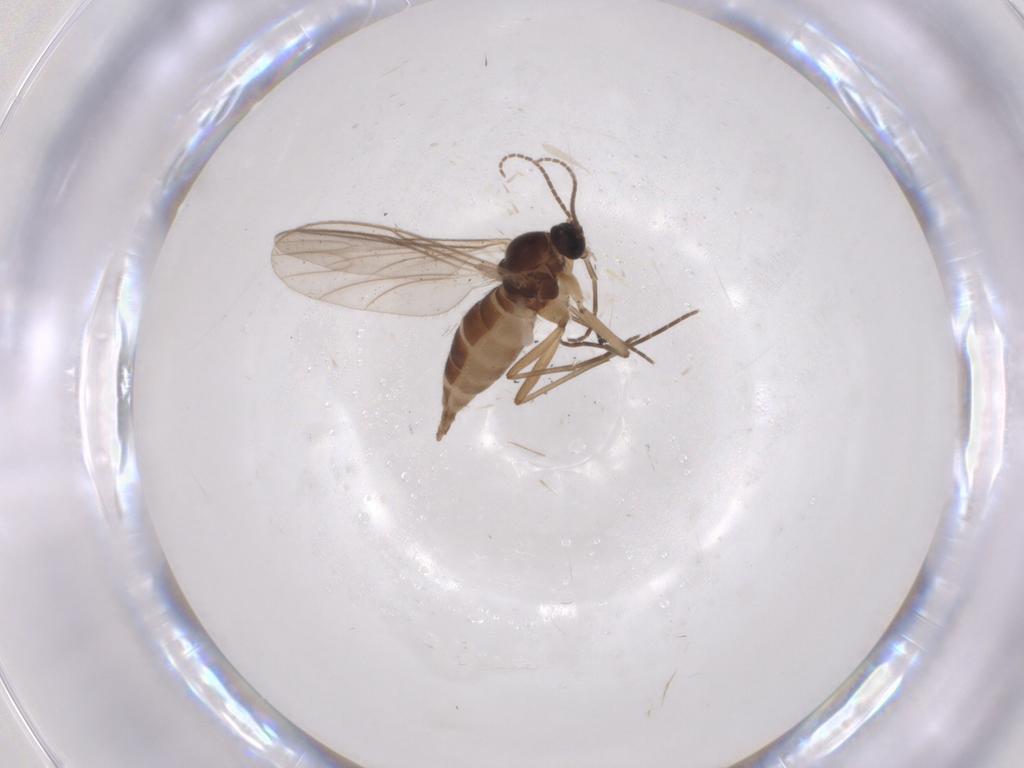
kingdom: Animalia
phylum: Arthropoda
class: Insecta
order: Diptera
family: Sciaridae
